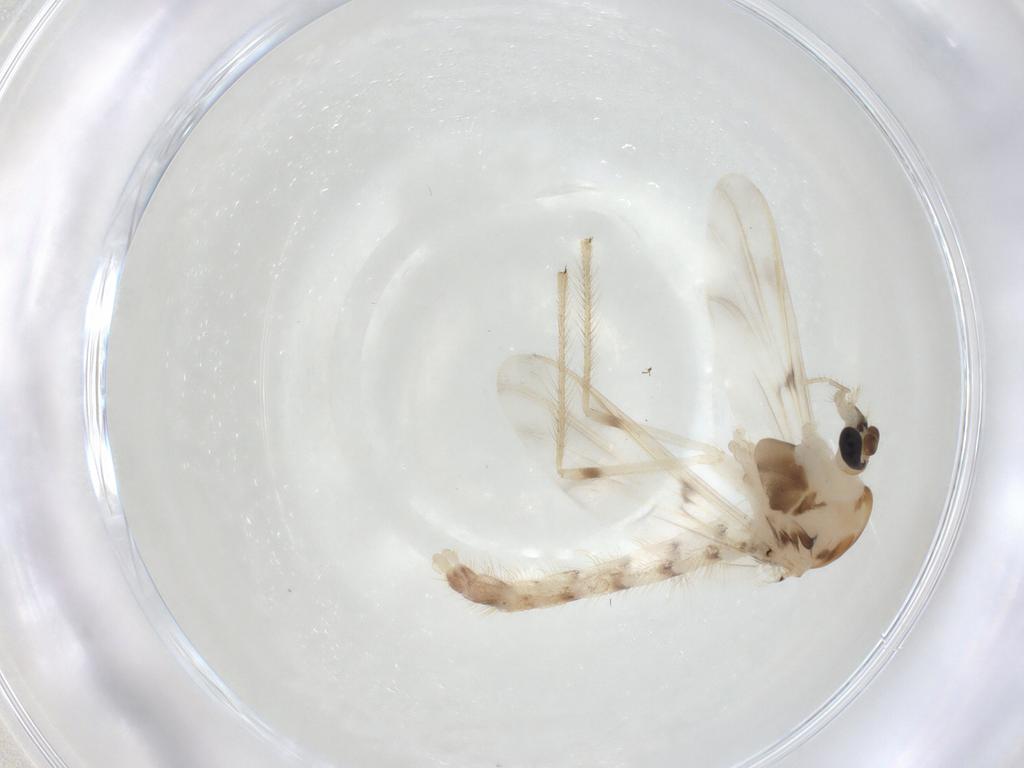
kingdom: Animalia
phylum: Arthropoda
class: Insecta
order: Diptera
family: Chironomidae
